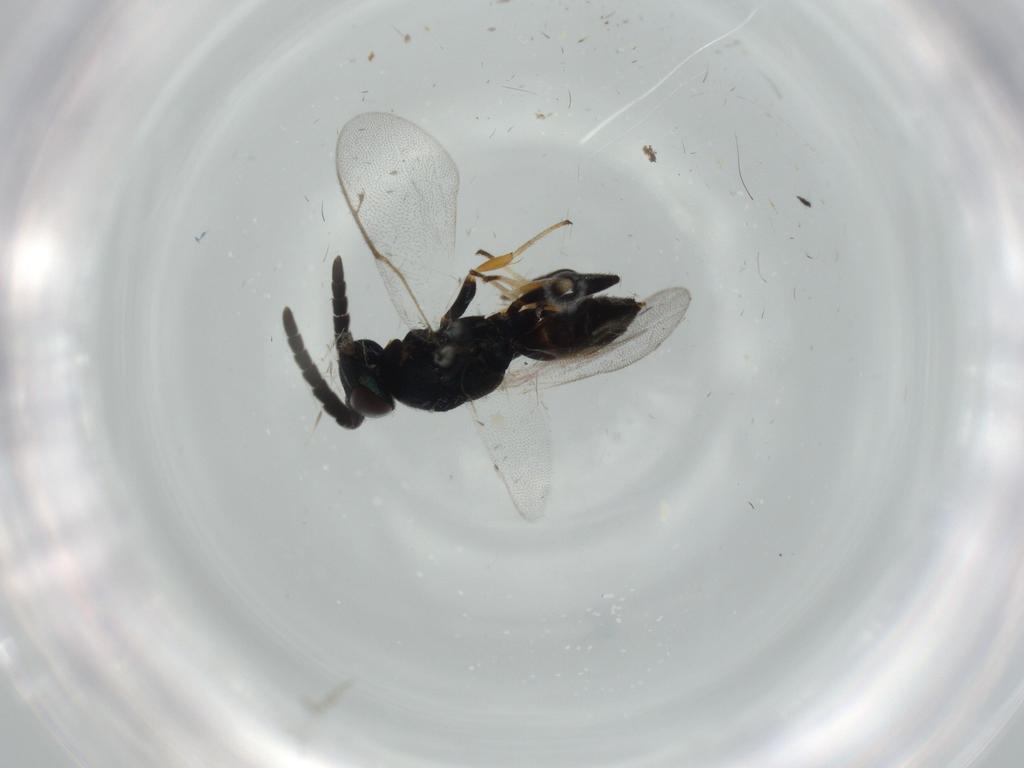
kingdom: Animalia
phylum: Arthropoda
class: Insecta
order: Hymenoptera
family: Eupelmidae
